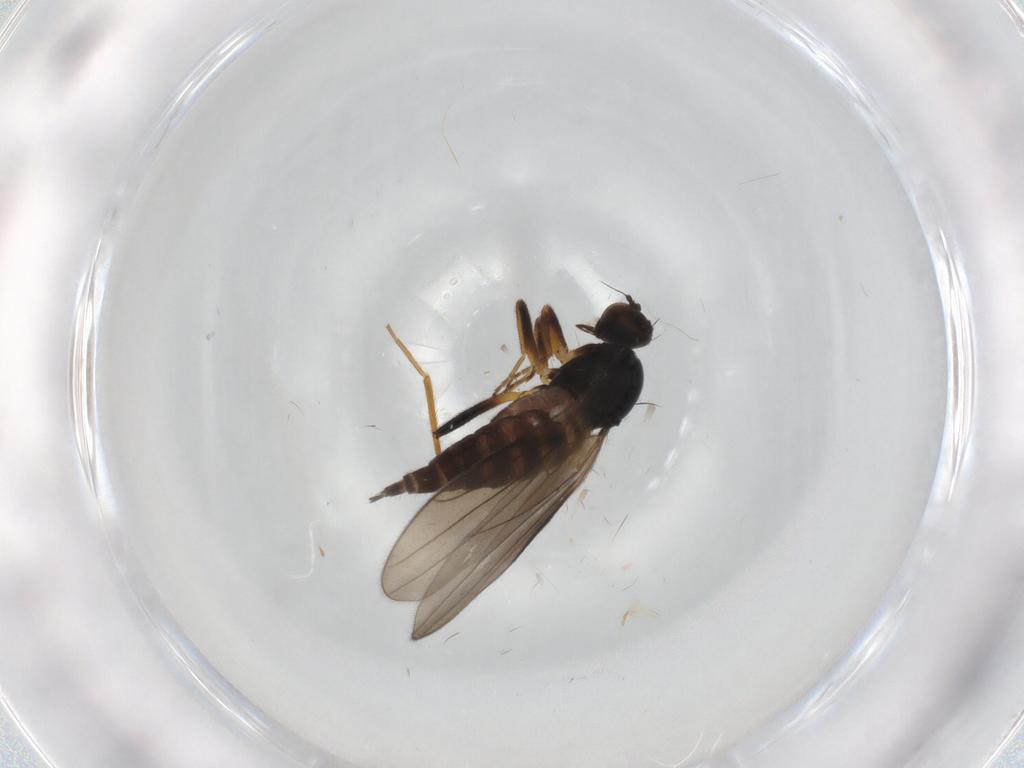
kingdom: Animalia
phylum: Arthropoda
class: Insecta
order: Diptera
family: Hybotidae
